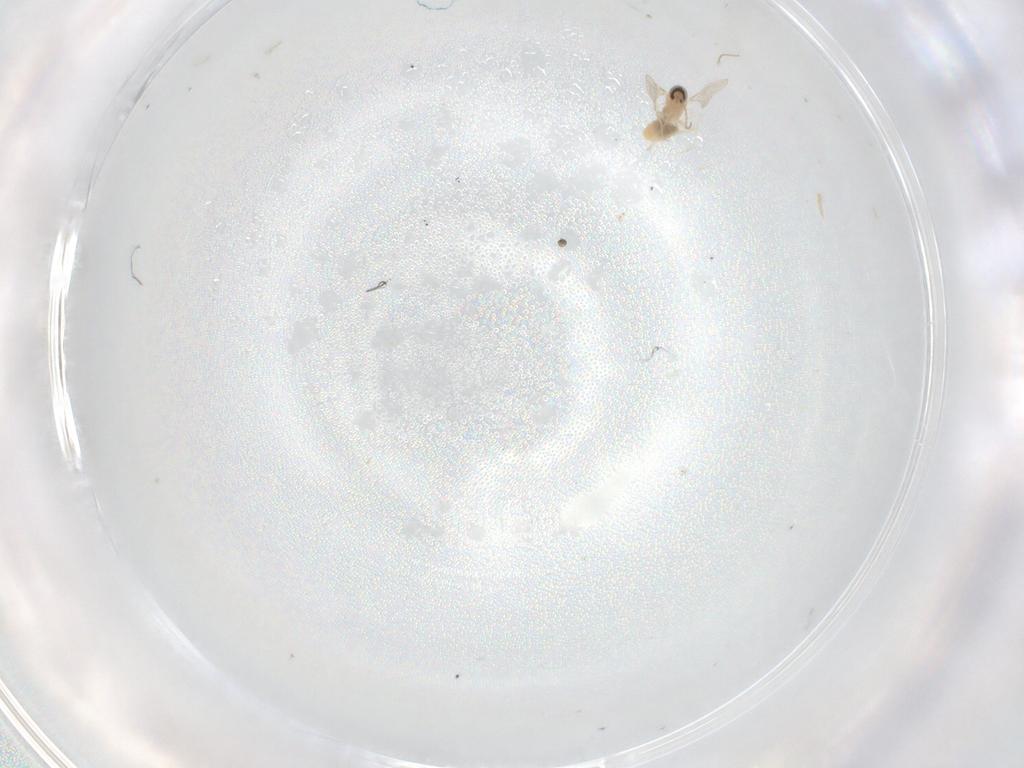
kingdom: Animalia
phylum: Arthropoda
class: Insecta
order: Diptera
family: Cecidomyiidae
